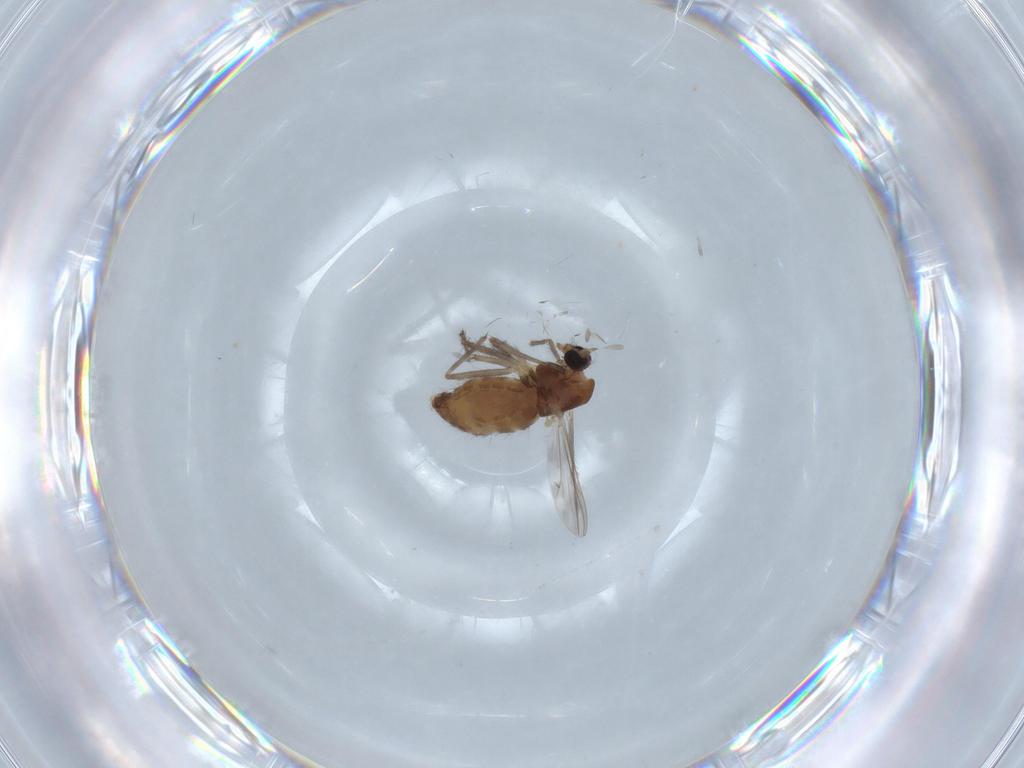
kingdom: Animalia
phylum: Arthropoda
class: Insecta
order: Diptera
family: Chironomidae
